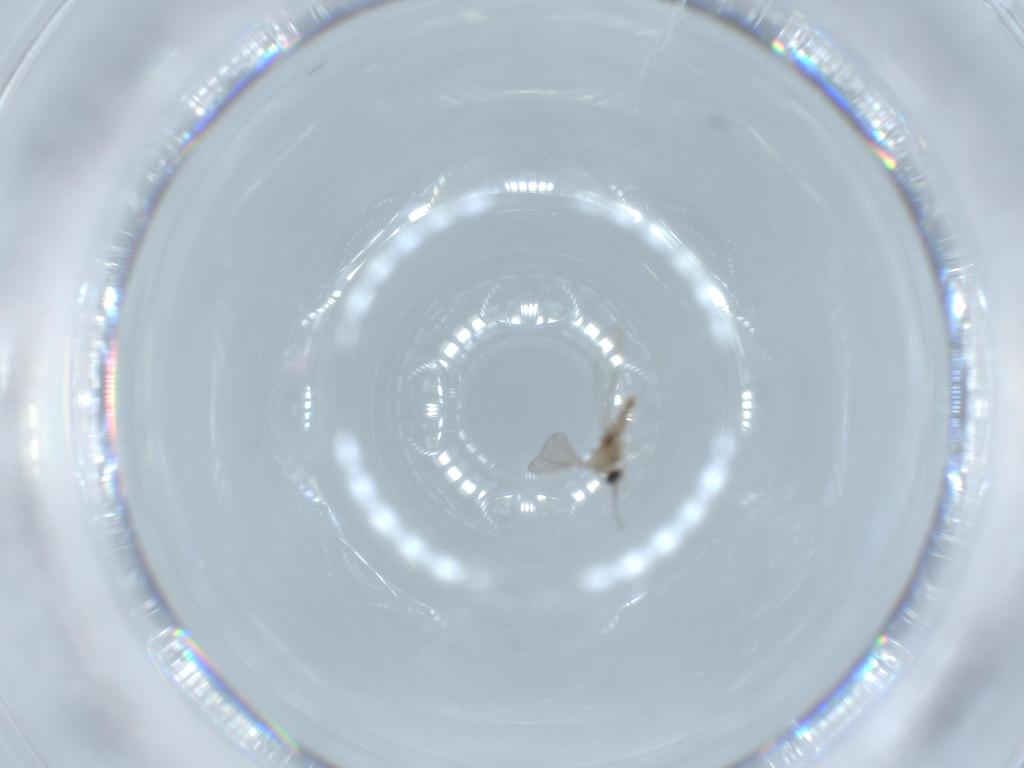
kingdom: Animalia
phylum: Arthropoda
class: Insecta
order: Diptera
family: Cecidomyiidae
